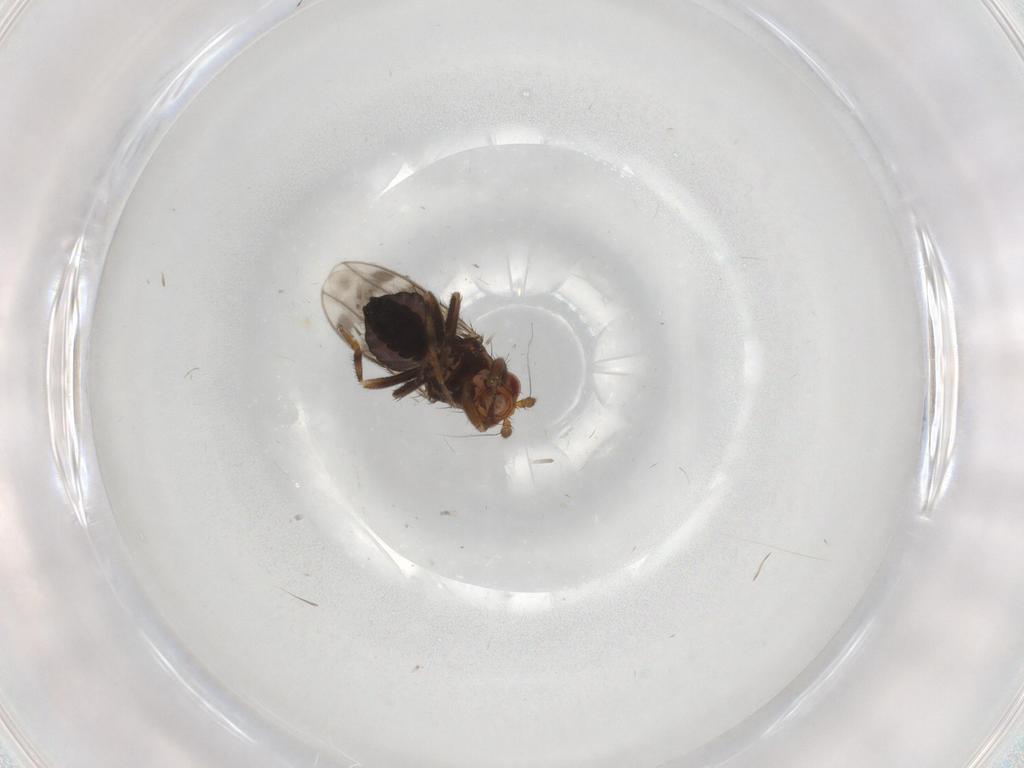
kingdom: Animalia
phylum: Arthropoda
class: Insecta
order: Diptera
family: Sphaeroceridae
